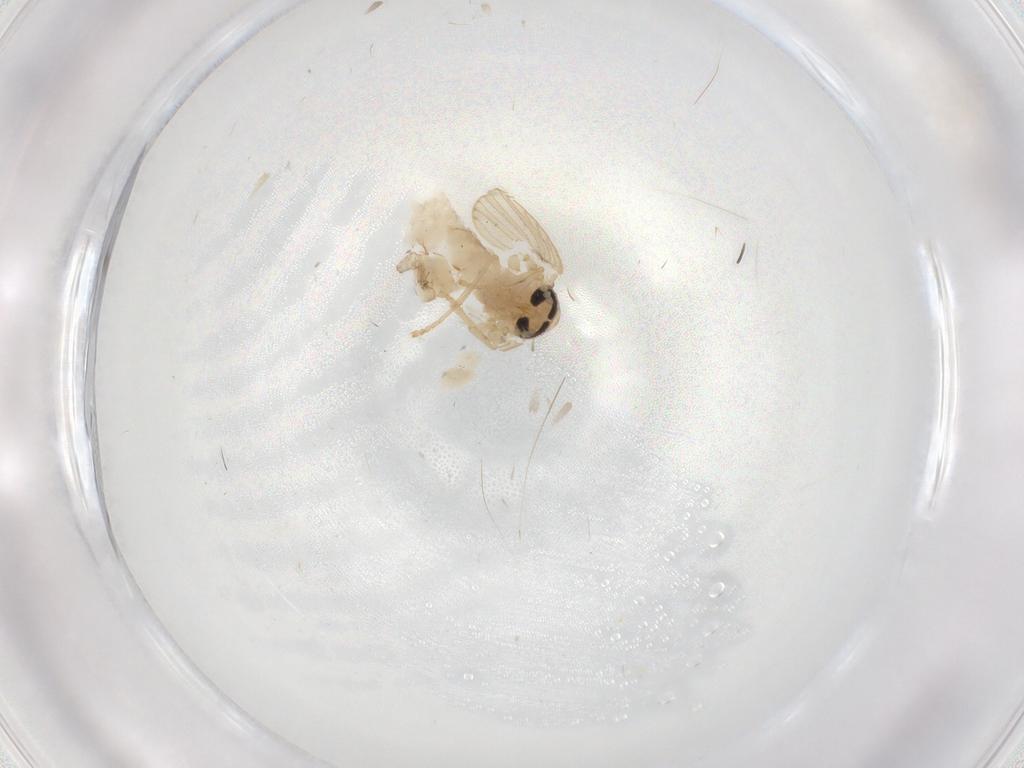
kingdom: Animalia
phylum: Arthropoda
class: Insecta
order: Diptera
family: Psychodidae
